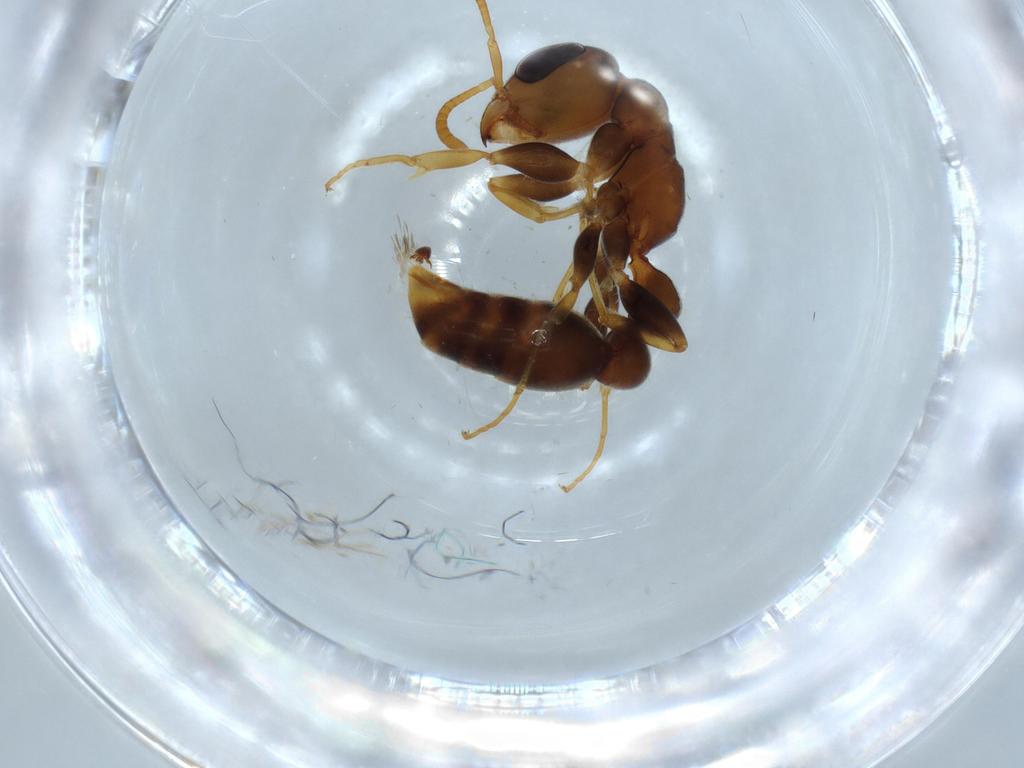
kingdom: Animalia
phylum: Arthropoda
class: Insecta
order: Hymenoptera
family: Formicidae
